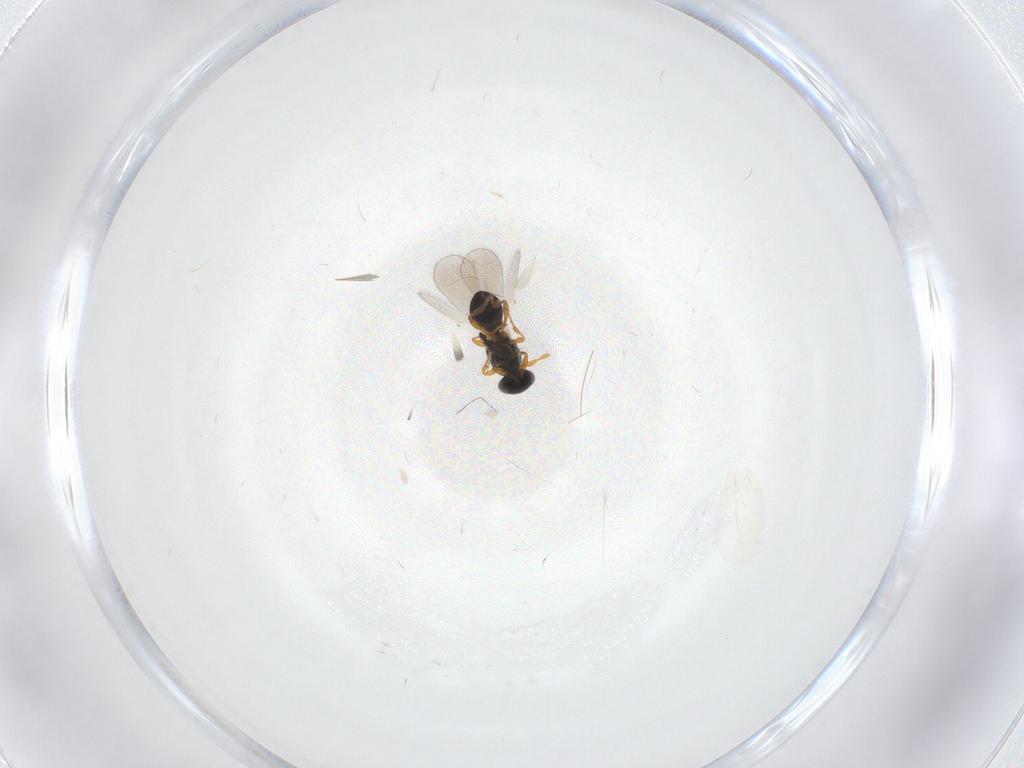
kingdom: Animalia
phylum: Arthropoda
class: Insecta
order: Hymenoptera
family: Platygastridae
